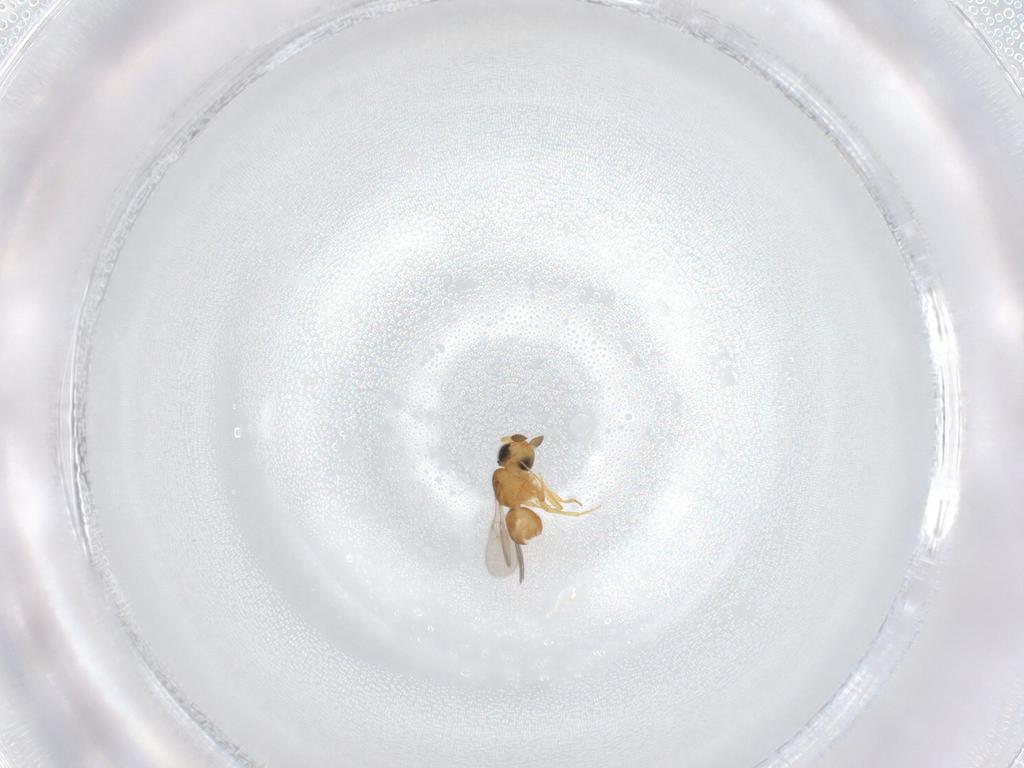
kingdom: Animalia
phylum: Arthropoda
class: Insecta
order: Hymenoptera
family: Scelionidae
